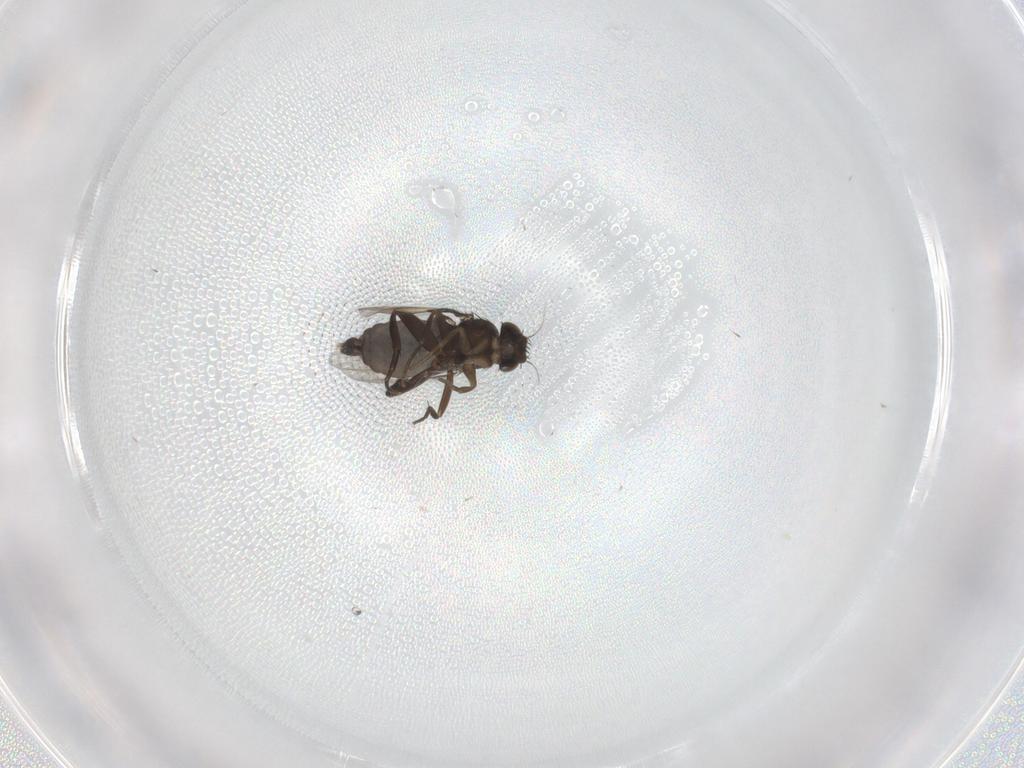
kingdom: Animalia
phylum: Arthropoda
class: Insecta
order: Diptera
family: Phoridae
